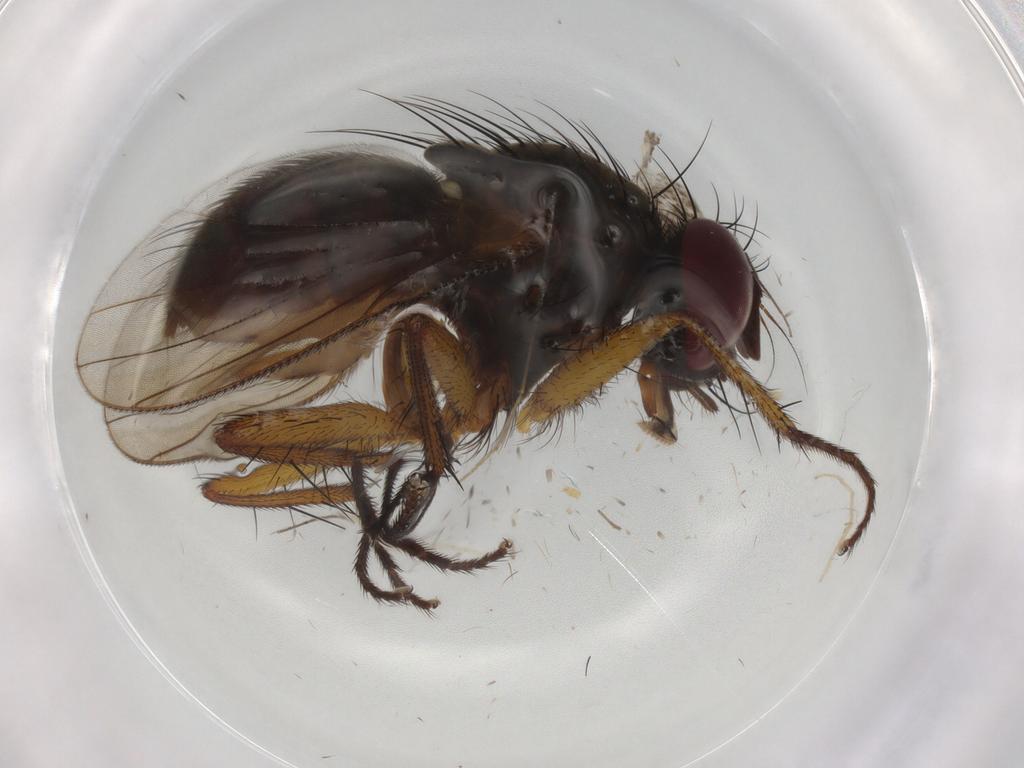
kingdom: Animalia
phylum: Arthropoda
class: Insecta
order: Diptera
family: Muscidae
